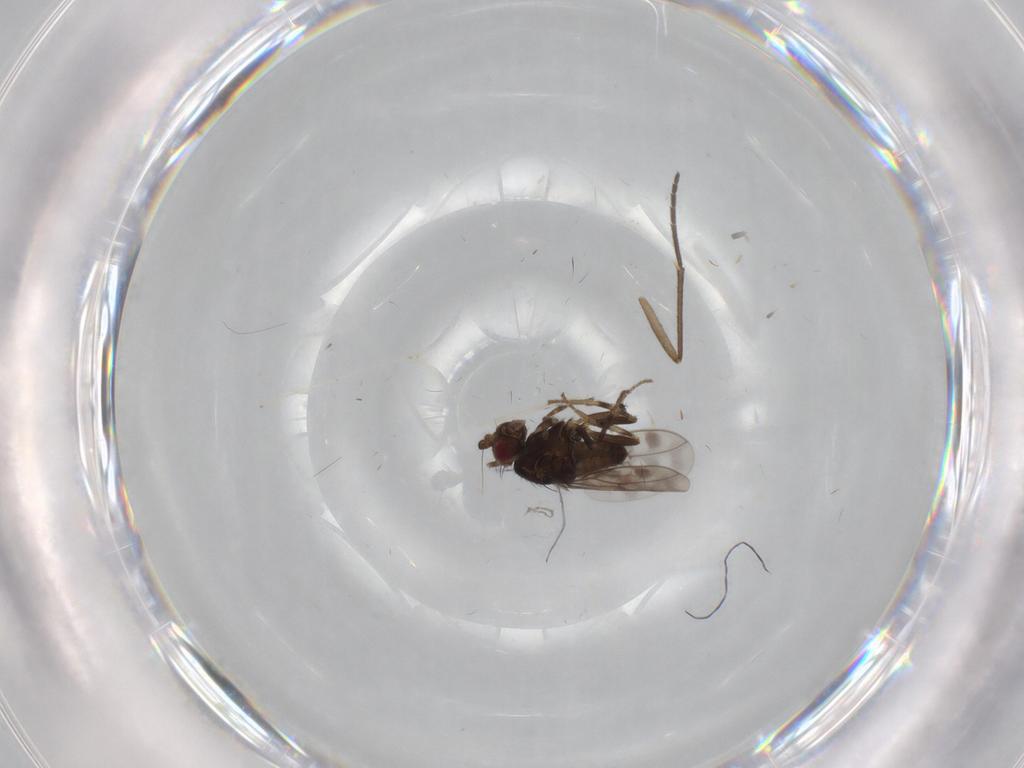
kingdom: Animalia
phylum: Arthropoda
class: Insecta
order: Diptera
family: Sphaeroceridae
